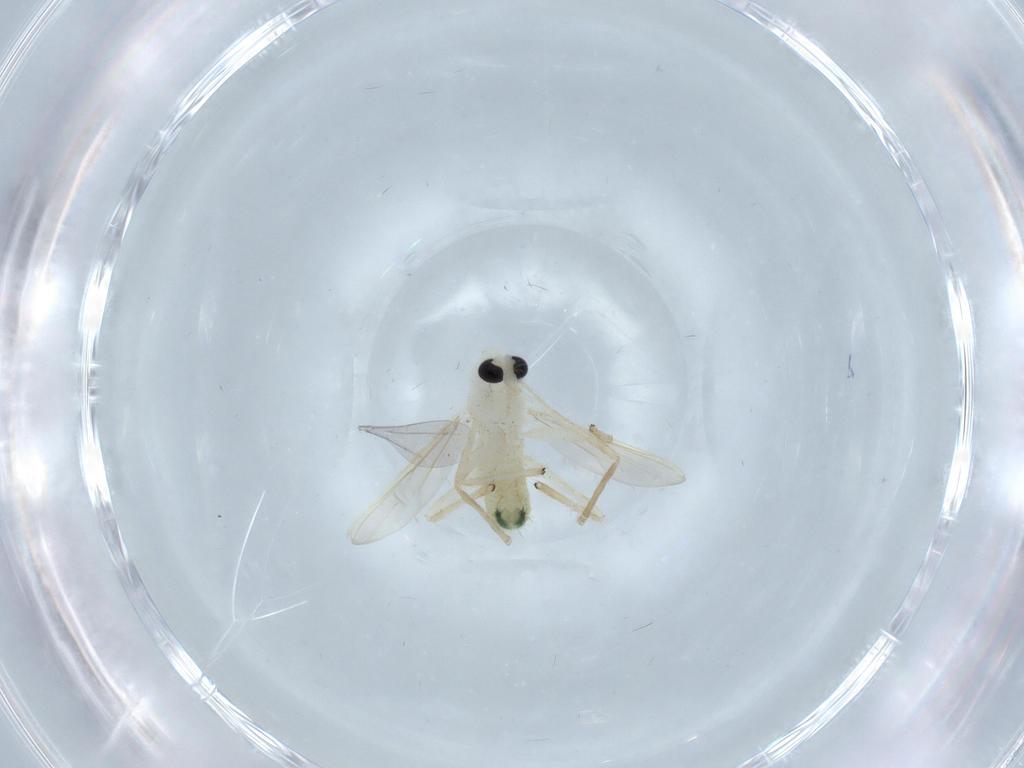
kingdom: Animalia
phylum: Arthropoda
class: Insecta
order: Diptera
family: Chironomidae
